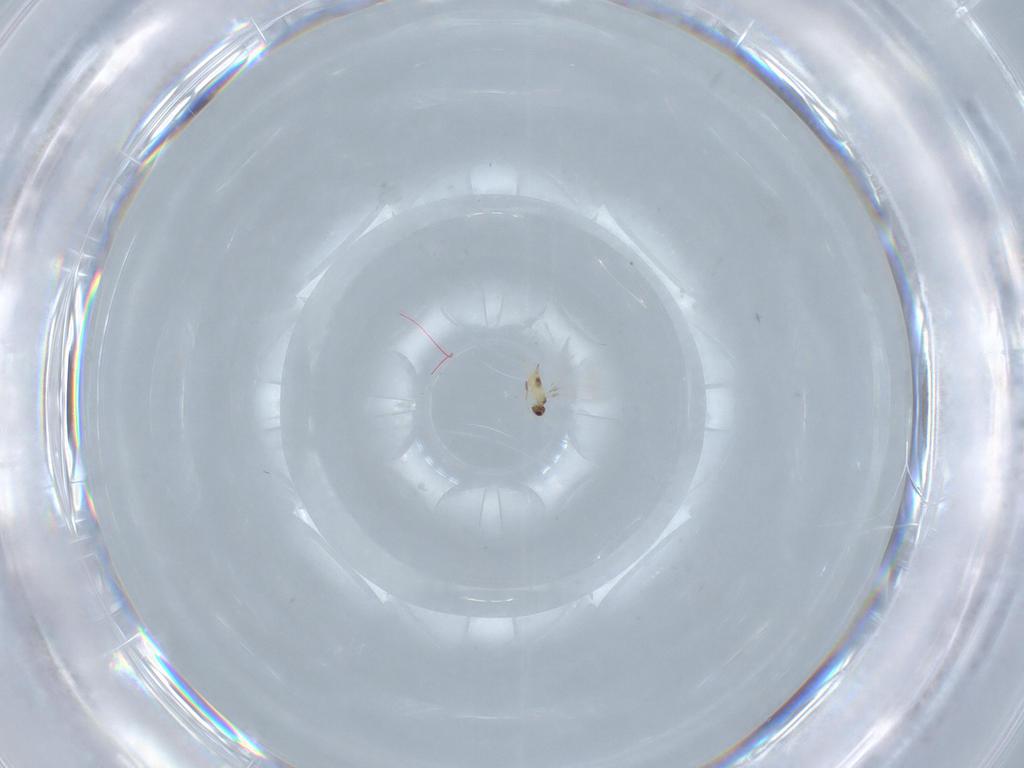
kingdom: Animalia
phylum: Arthropoda
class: Insecta
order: Hymenoptera
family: Mymaridae
